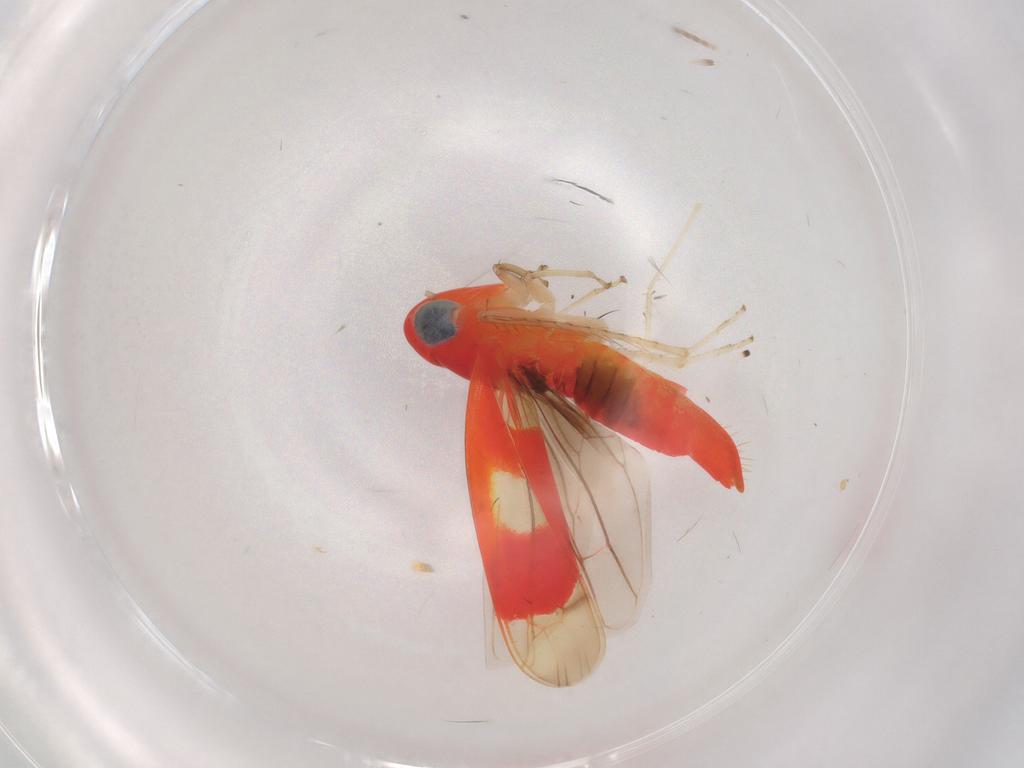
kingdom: Animalia
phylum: Arthropoda
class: Insecta
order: Hemiptera
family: Cicadellidae
